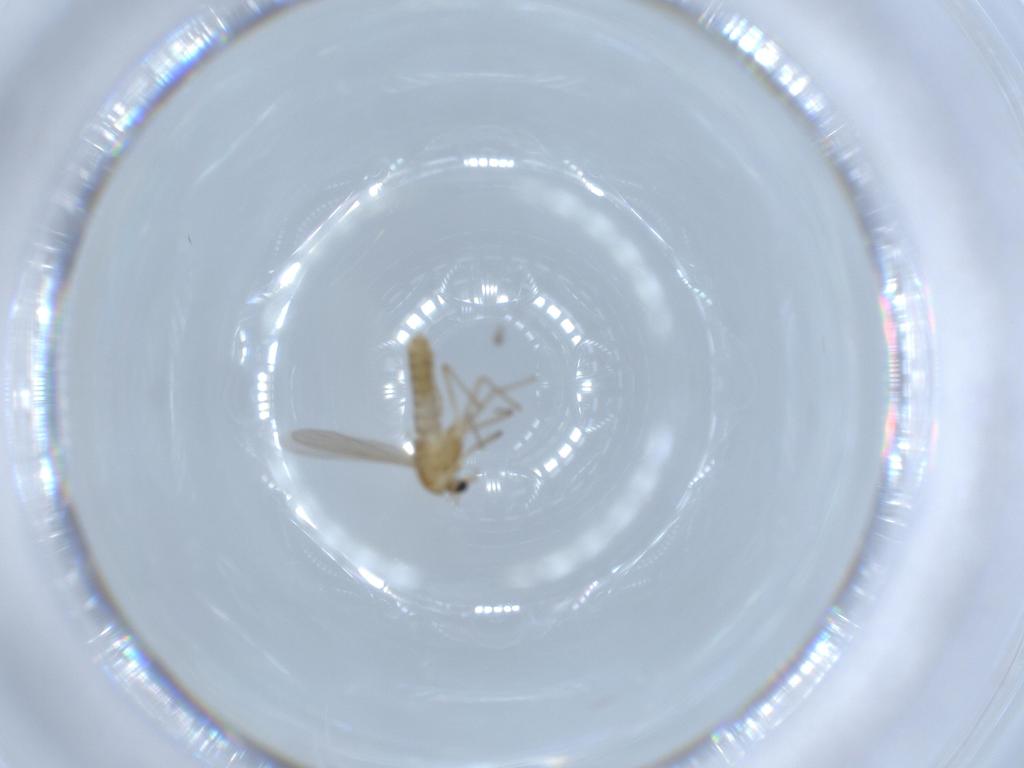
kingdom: Animalia
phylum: Arthropoda
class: Insecta
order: Diptera
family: Chironomidae
